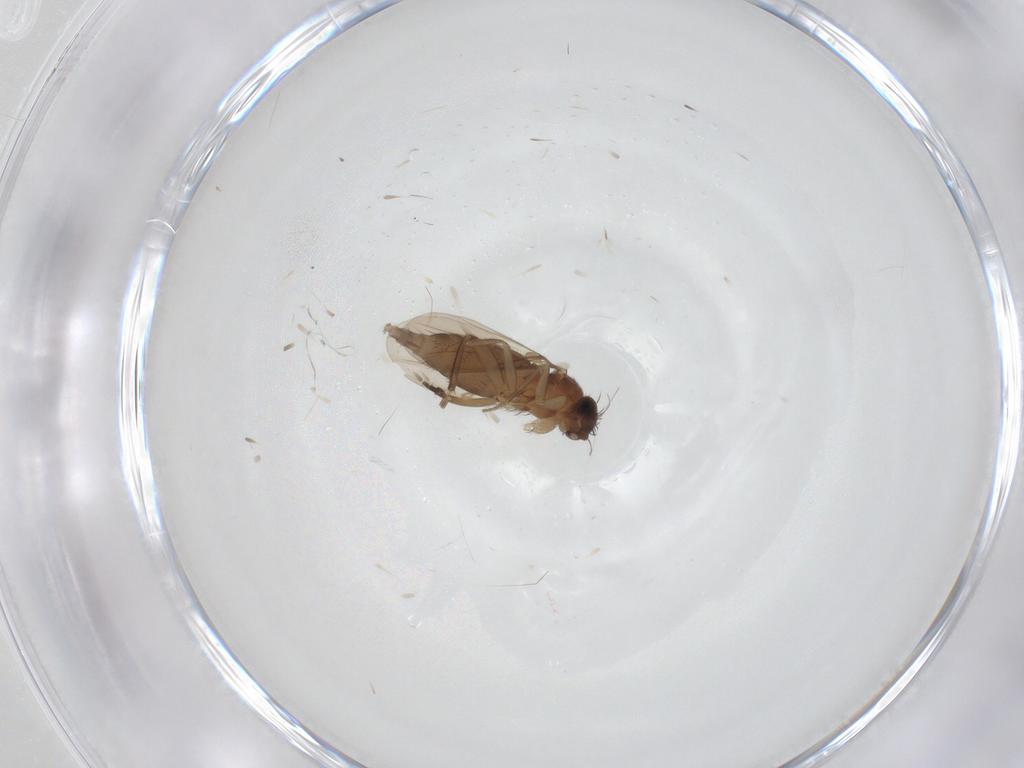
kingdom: Animalia
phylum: Arthropoda
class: Insecta
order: Diptera
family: Phoridae
